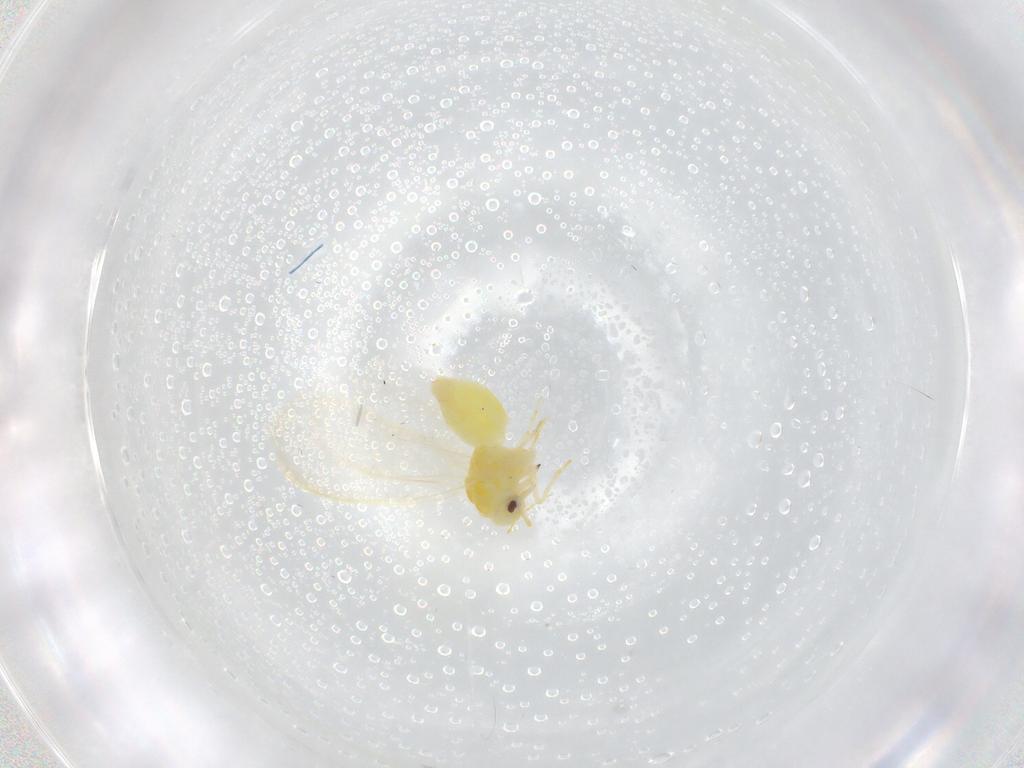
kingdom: Animalia
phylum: Arthropoda
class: Insecta
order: Hemiptera
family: Aleyrodidae
